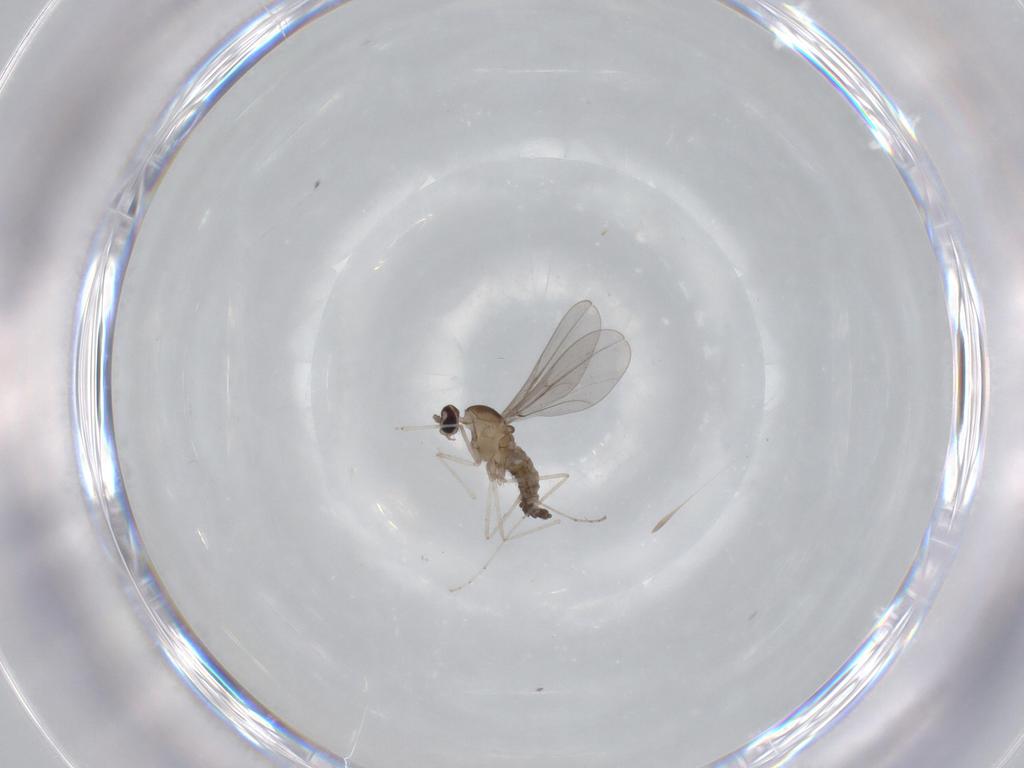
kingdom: Animalia
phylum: Arthropoda
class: Insecta
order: Diptera
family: Cecidomyiidae
